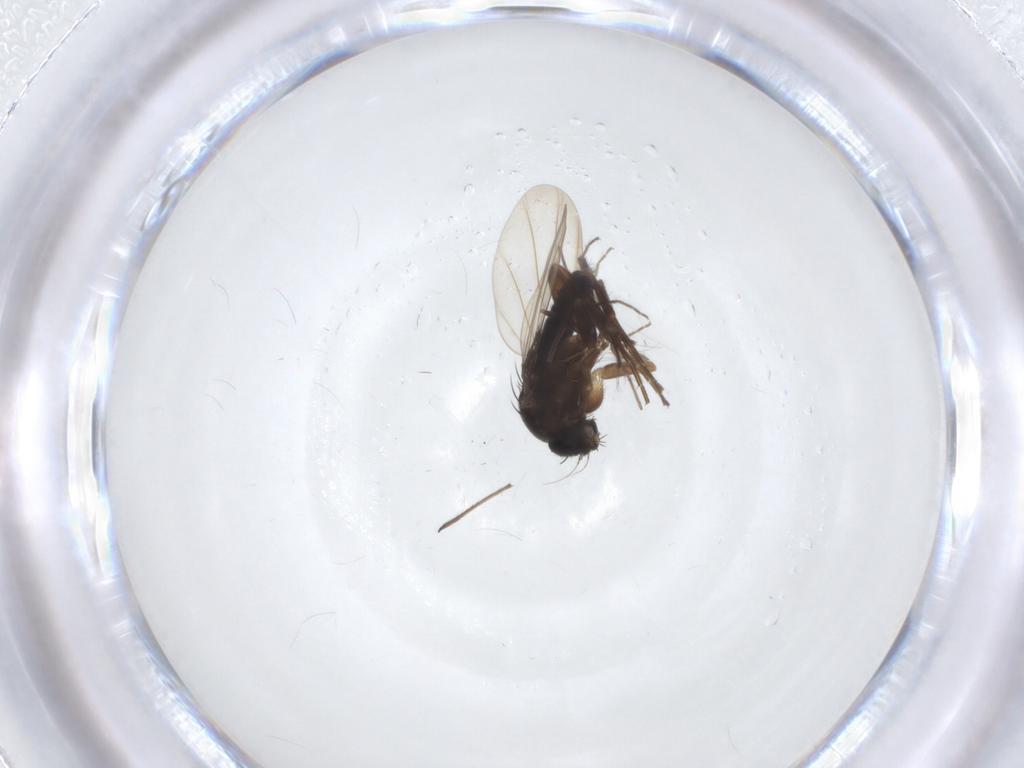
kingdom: Animalia
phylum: Arthropoda
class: Insecta
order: Diptera
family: Phoridae
